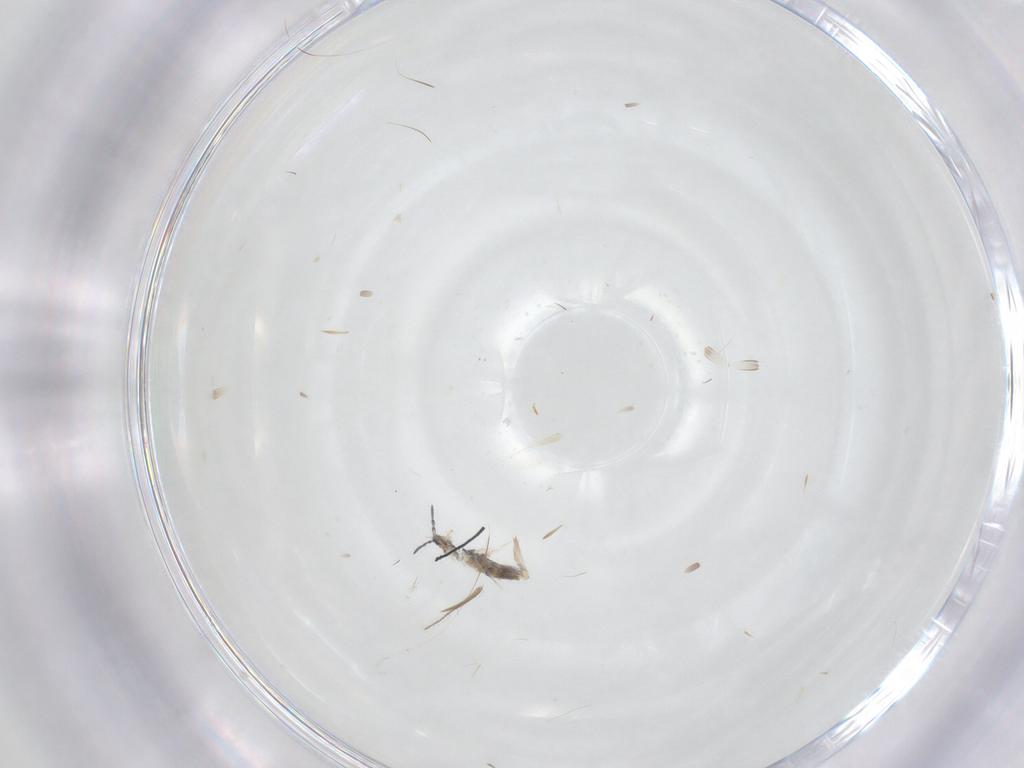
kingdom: Animalia
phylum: Arthropoda
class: Collembola
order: Entomobryomorpha
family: Entomobryidae
